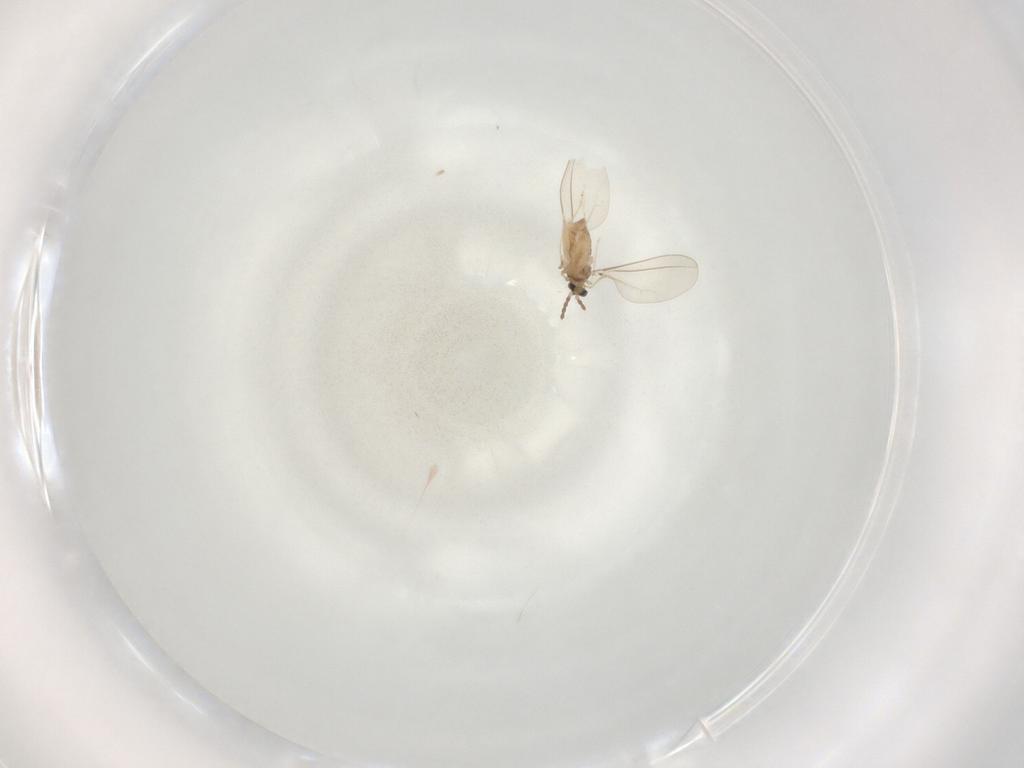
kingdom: Animalia
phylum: Arthropoda
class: Insecta
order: Diptera
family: Cecidomyiidae
